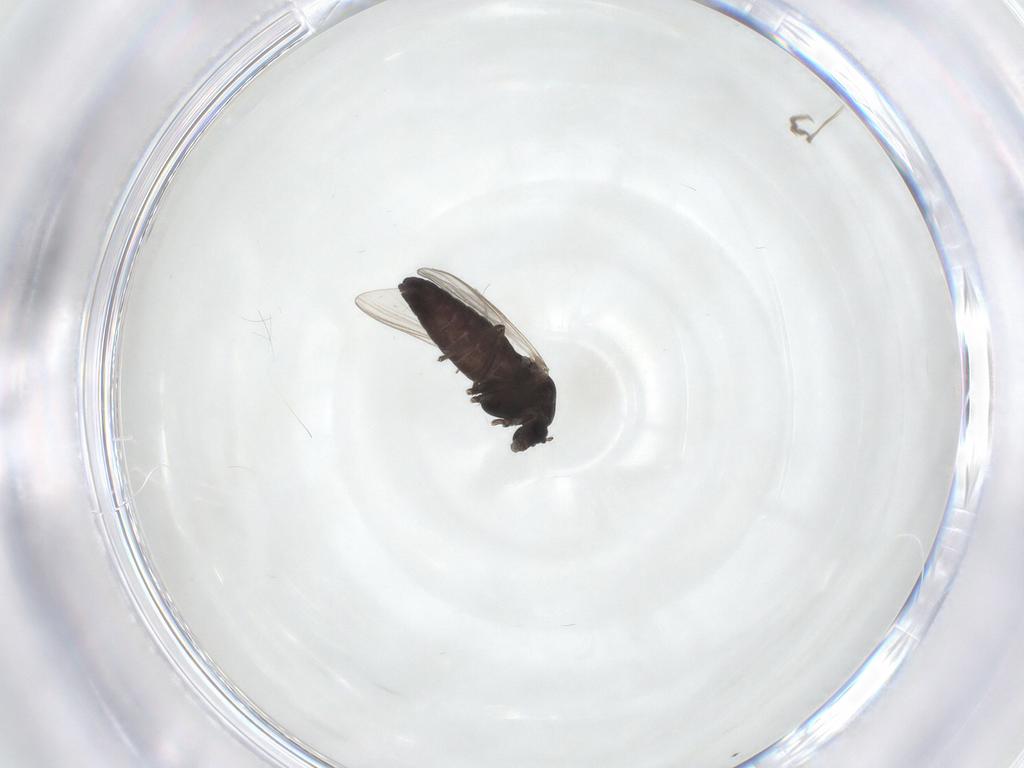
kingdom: Animalia
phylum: Arthropoda
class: Insecta
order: Diptera
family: Chironomidae
